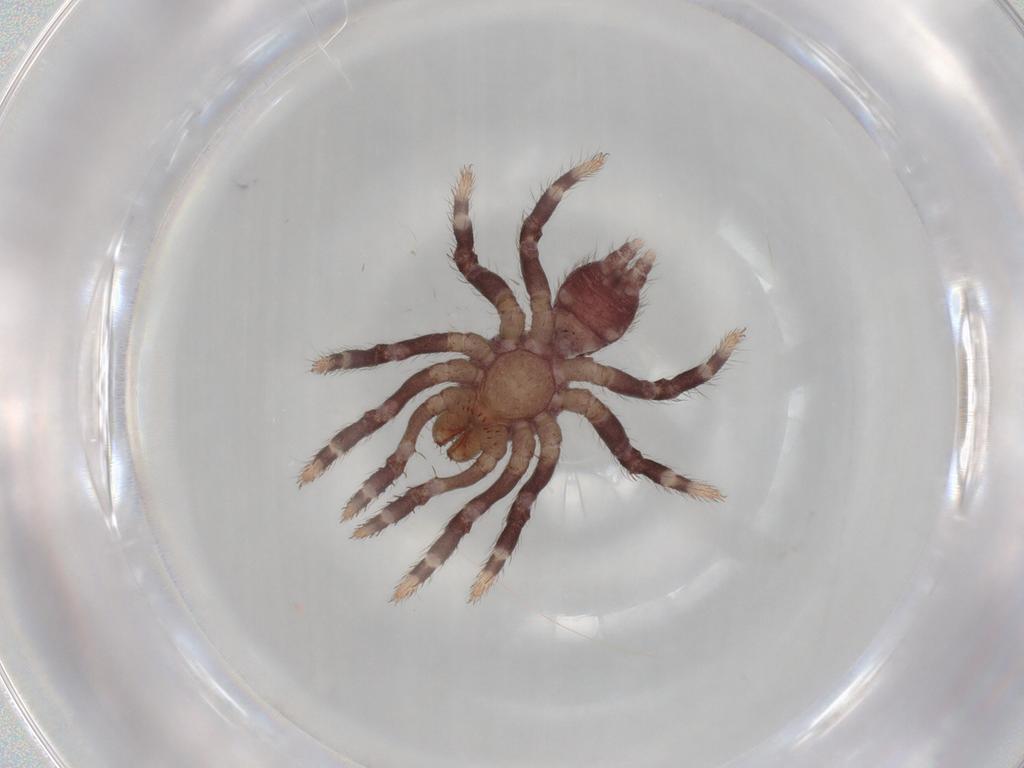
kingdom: Animalia
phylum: Arthropoda
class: Arachnida
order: Araneae
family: Halonoproctidae
